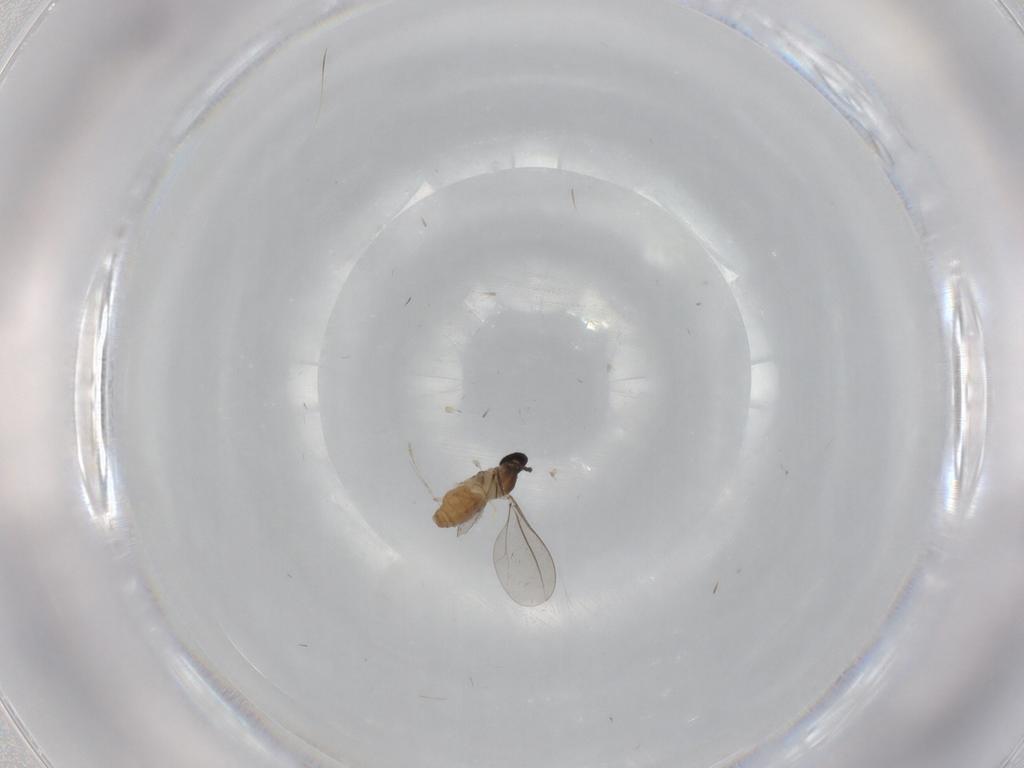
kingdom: Animalia
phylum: Arthropoda
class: Insecta
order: Diptera
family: Cecidomyiidae
